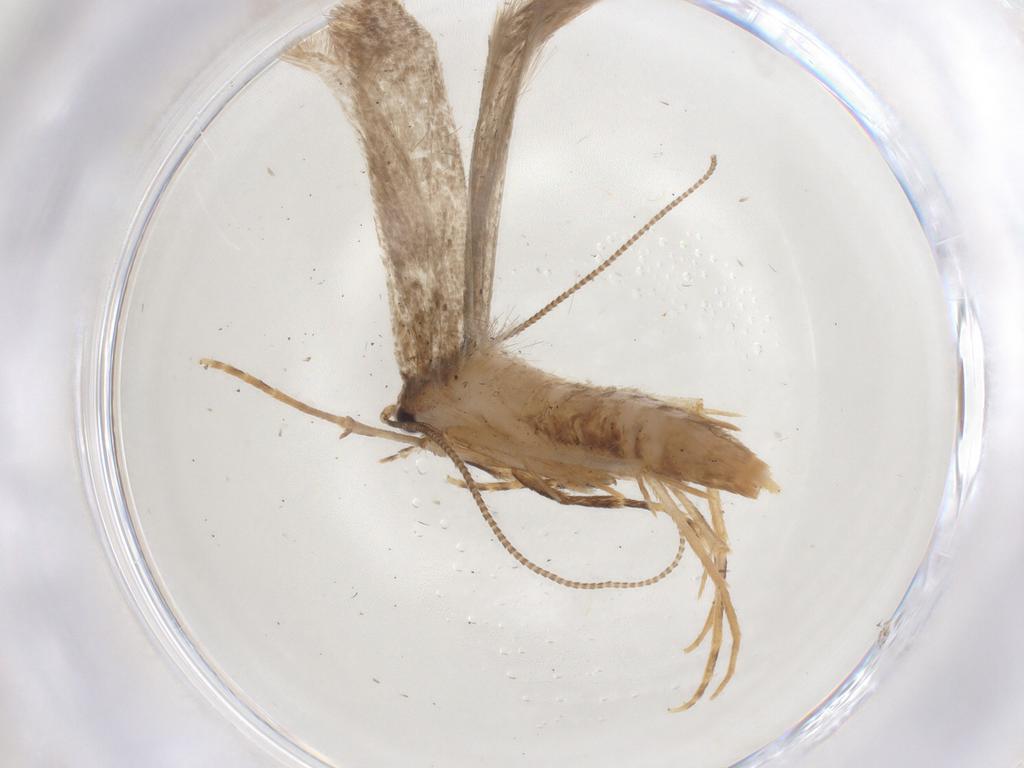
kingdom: Animalia
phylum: Arthropoda
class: Insecta
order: Lepidoptera
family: Tineidae
